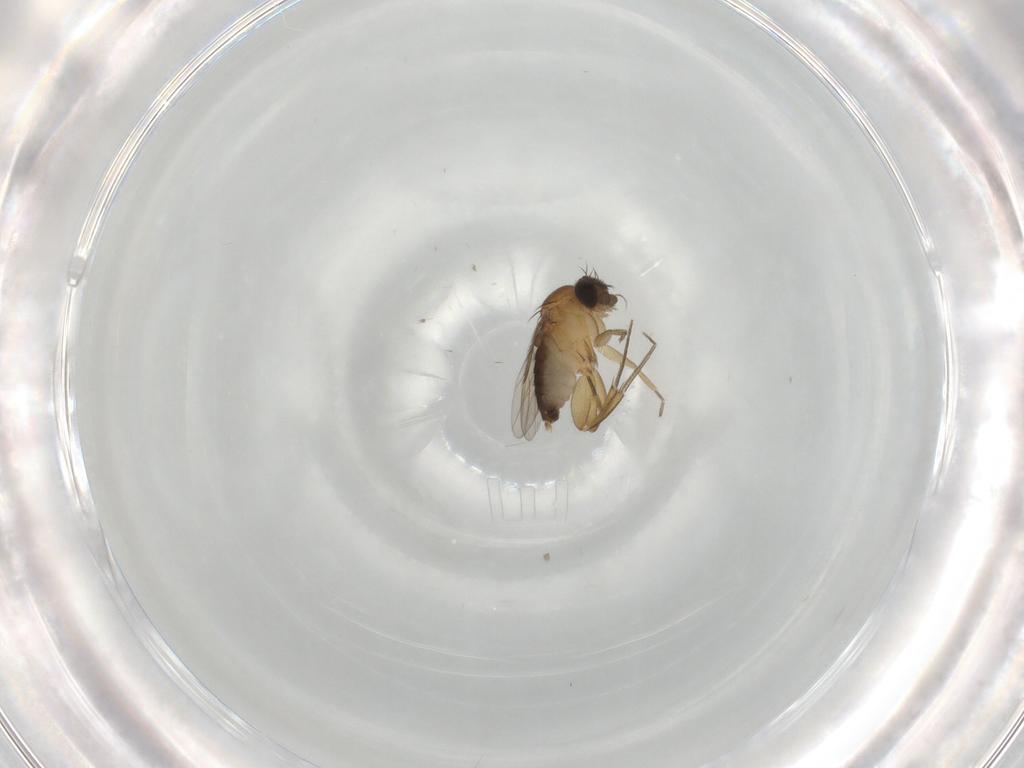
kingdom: Animalia
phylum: Arthropoda
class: Insecta
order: Diptera
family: Phoridae
